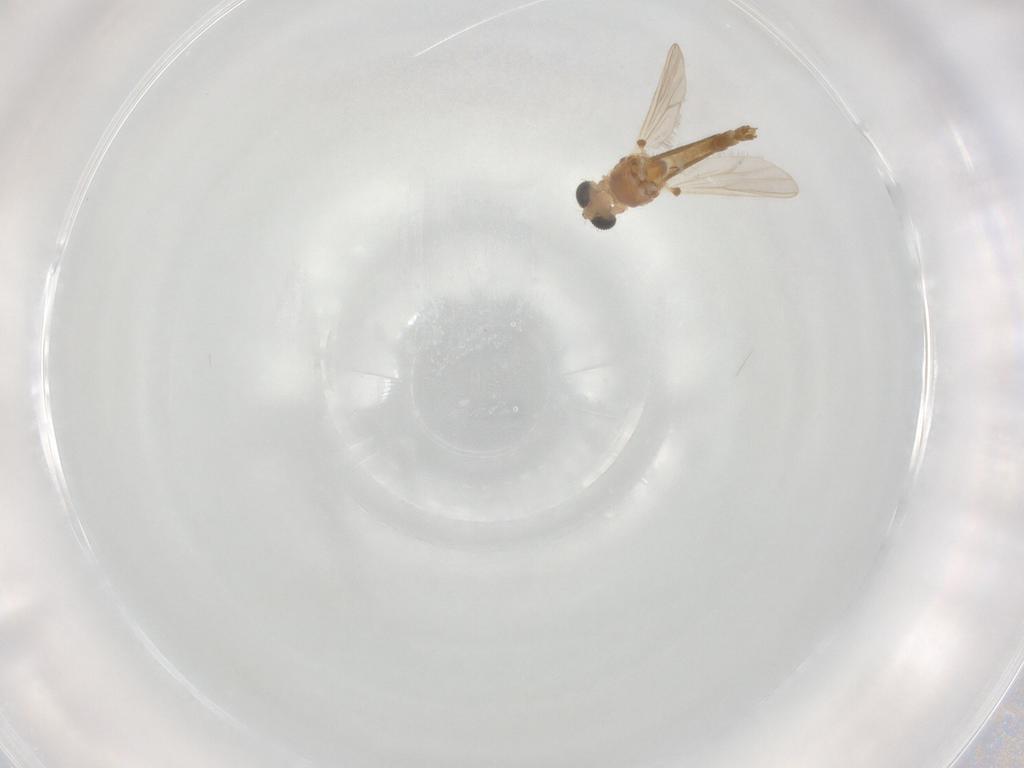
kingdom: Animalia
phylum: Arthropoda
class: Insecta
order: Diptera
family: Chironomidae
